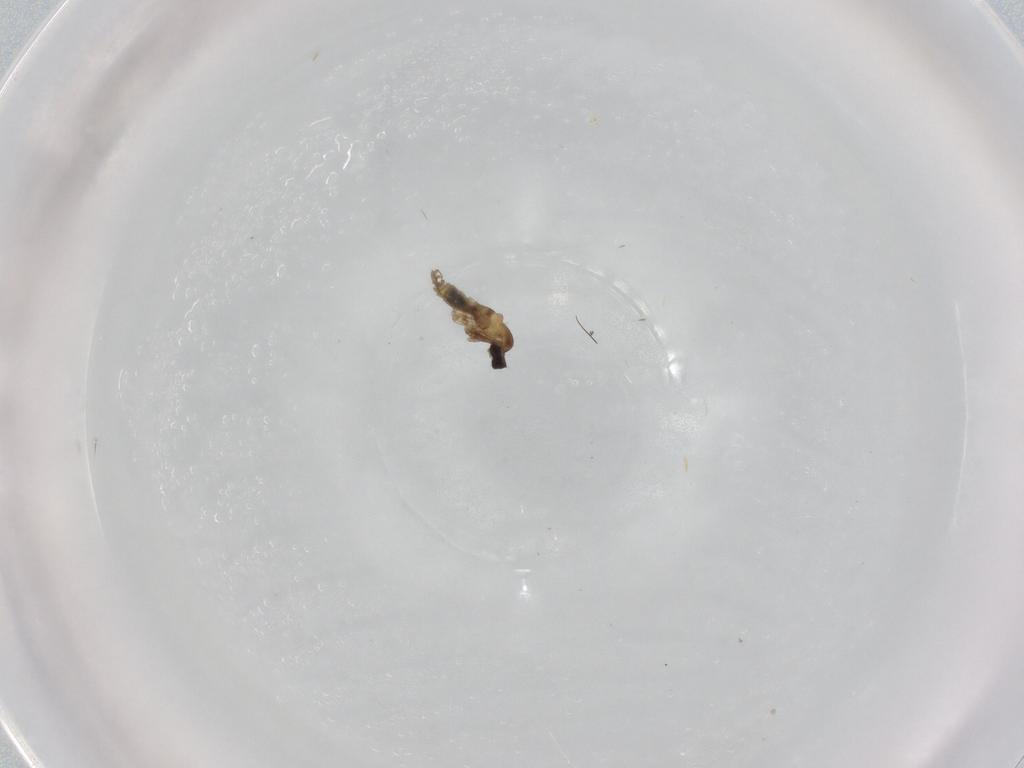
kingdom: Animalia
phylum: Arthropoda
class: Insecta
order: Diptera
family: Cecidomyiidae
